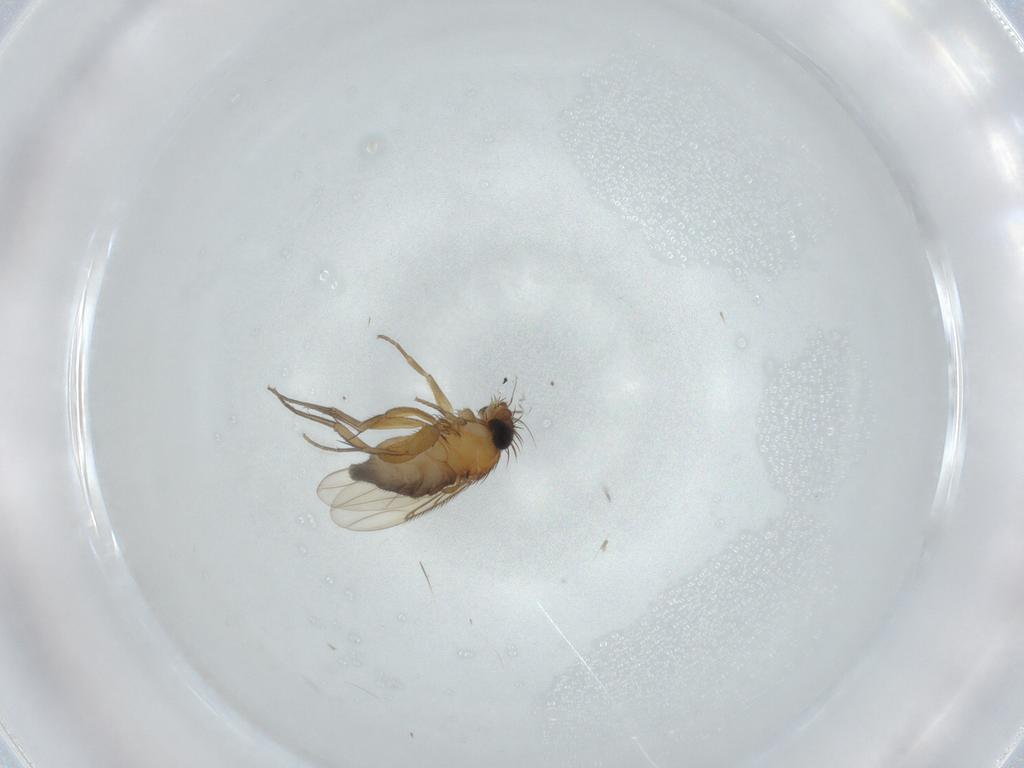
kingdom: Animalia
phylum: Arthropoda
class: Insecta
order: Diptera
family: Phoridae
